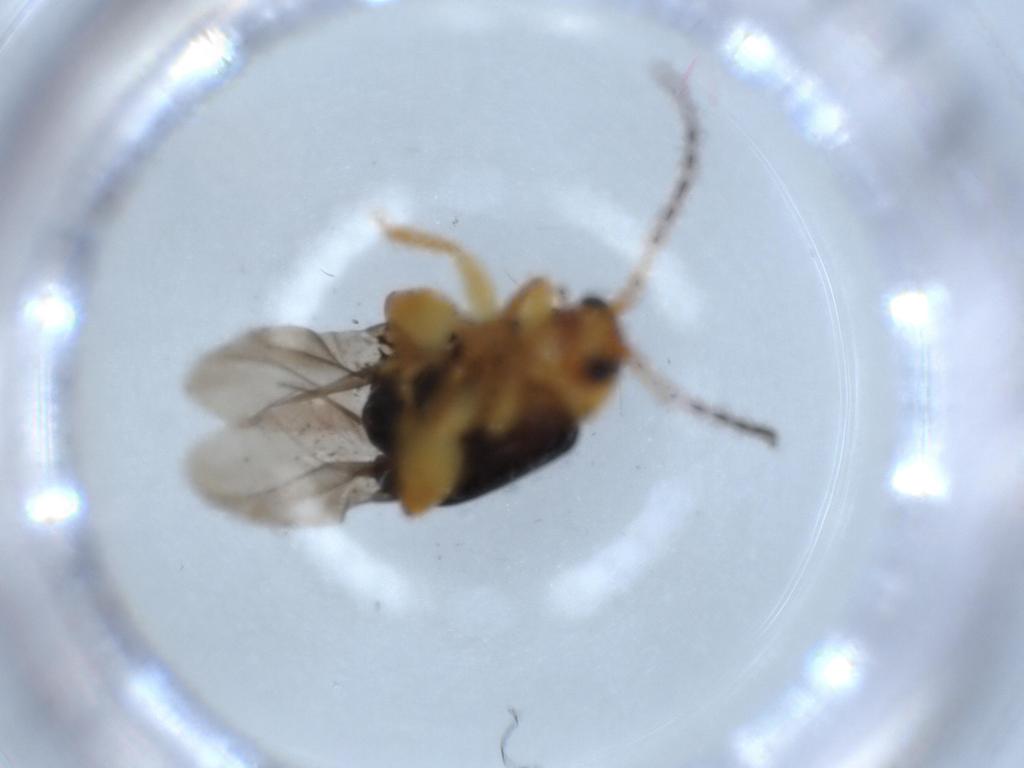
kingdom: Animalia
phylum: Arthropoda
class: Insecta
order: Coleoptera
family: Chrysomelidae
